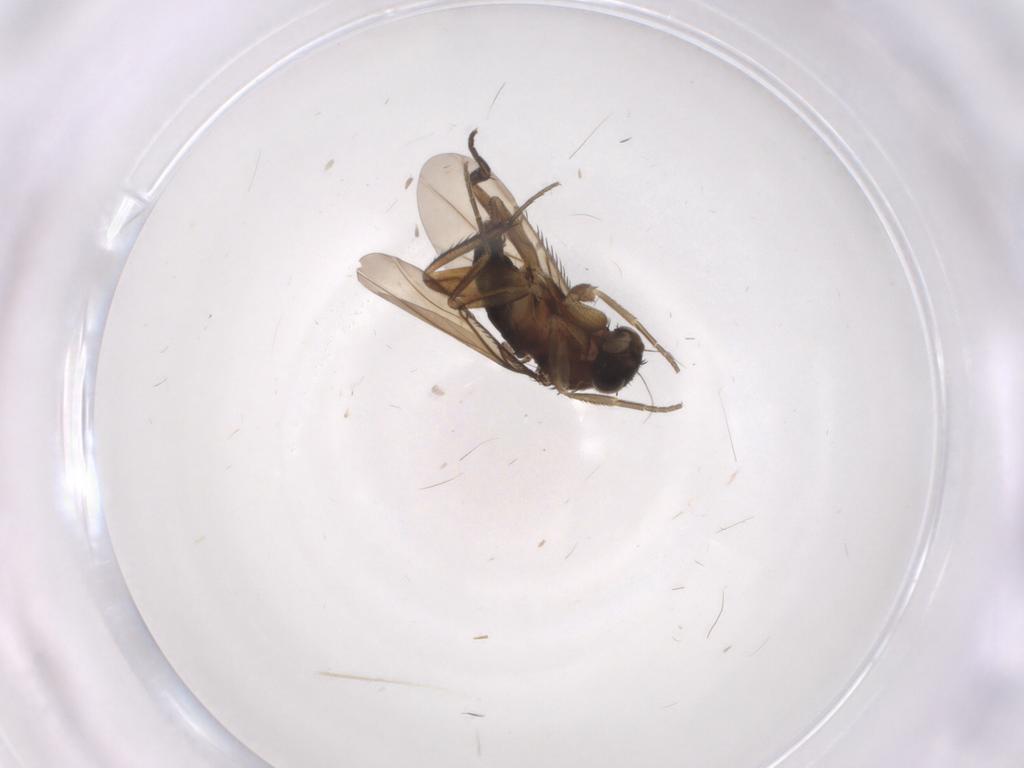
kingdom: Animalia
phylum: Arthropoda
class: Insecta
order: Diptera
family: Phoridae
